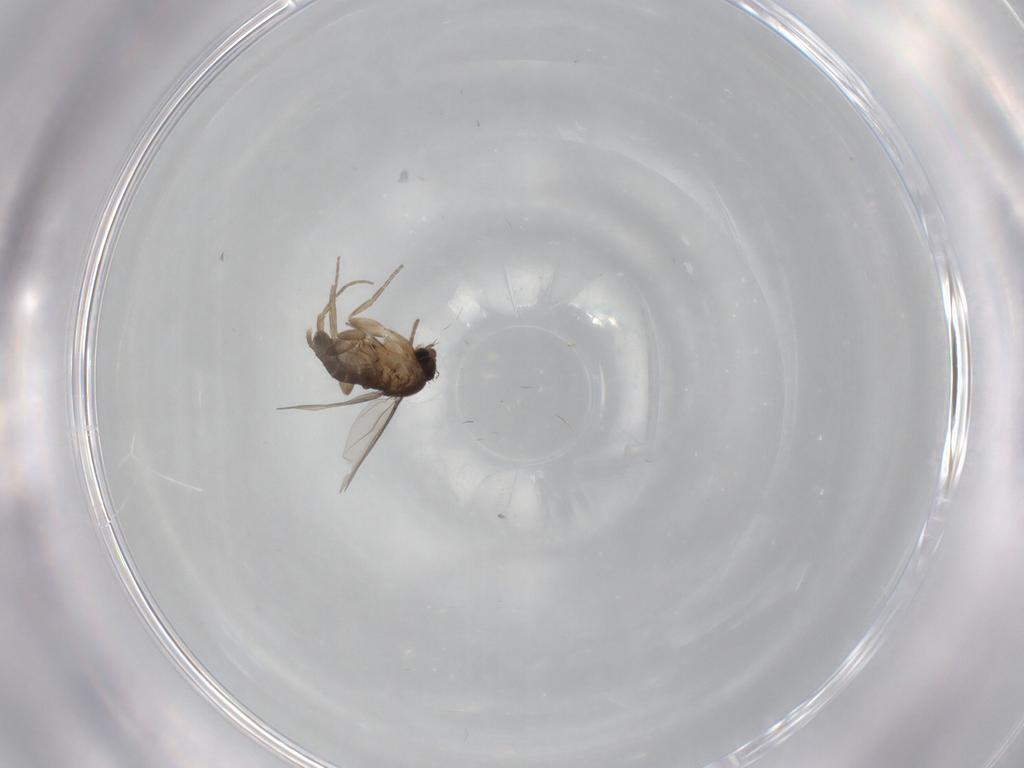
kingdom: Animalia
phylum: Arthropoda
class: Insecta
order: Diptera
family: Phoridae
